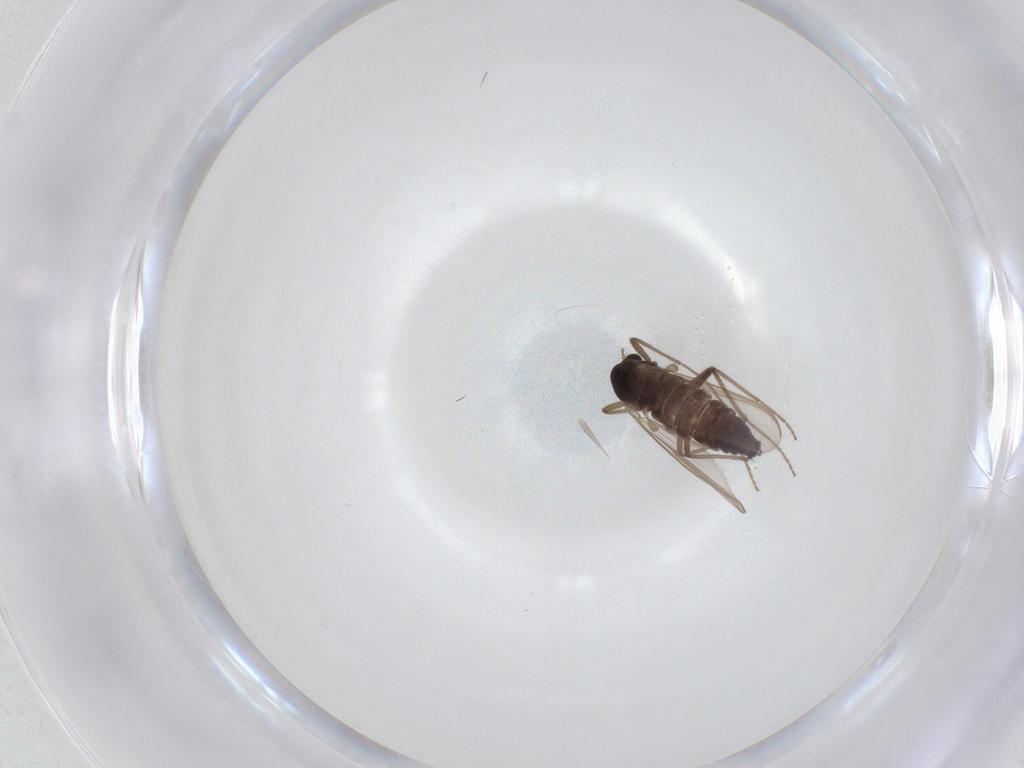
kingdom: Animalia
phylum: Arthropoda
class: Insecta
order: Diptera
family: Chironomidae
